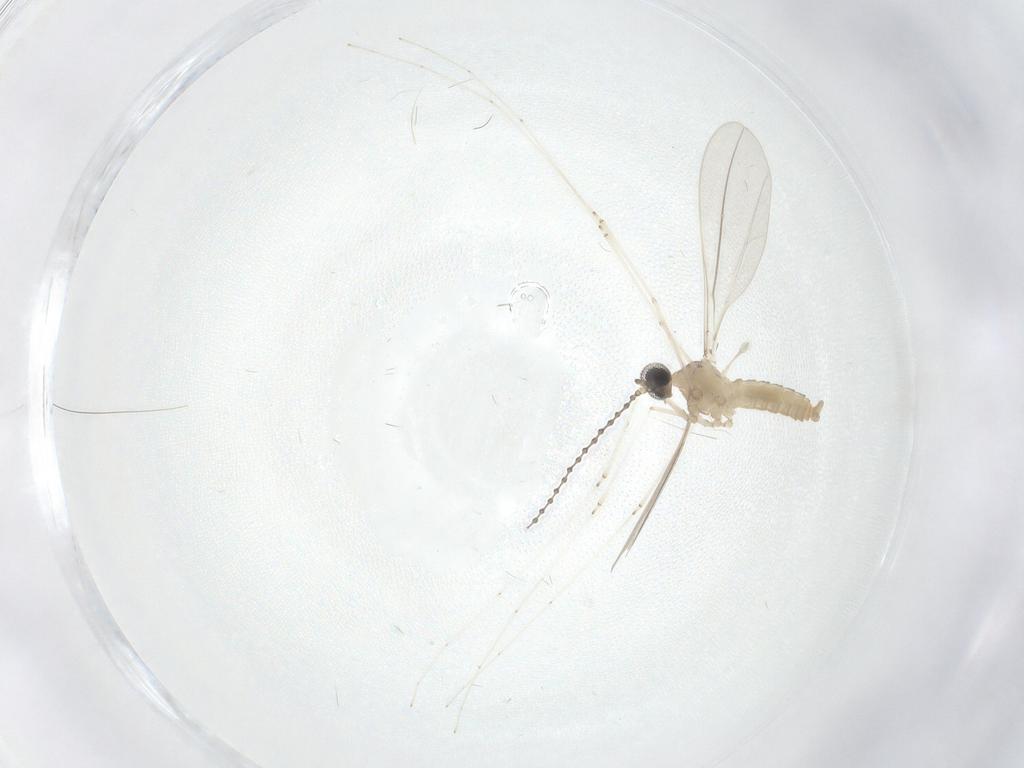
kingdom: Animalia
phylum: Arthropoda
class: Insecta
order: Diptera
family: Cecidomyiidae
